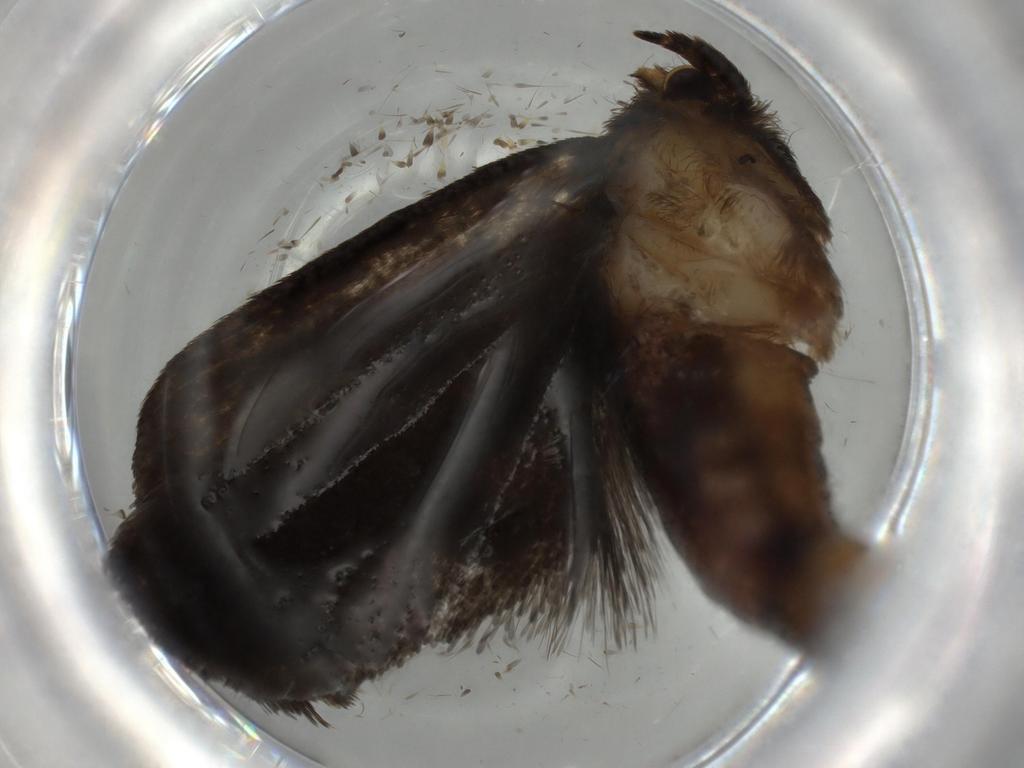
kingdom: Animalia
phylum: Arthropoda
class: Insecta
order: Lepidoptera
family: Tineidae
